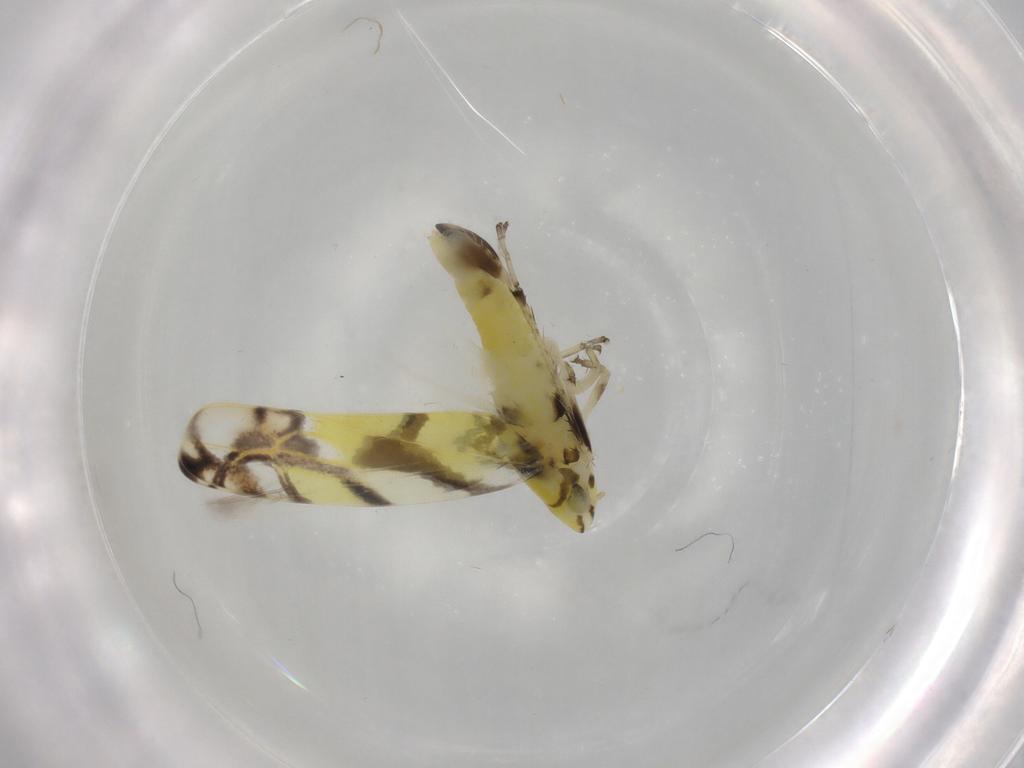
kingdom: Animalia
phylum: Arthropoda
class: Insecta
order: Hemiptera
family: Cicadellidae
